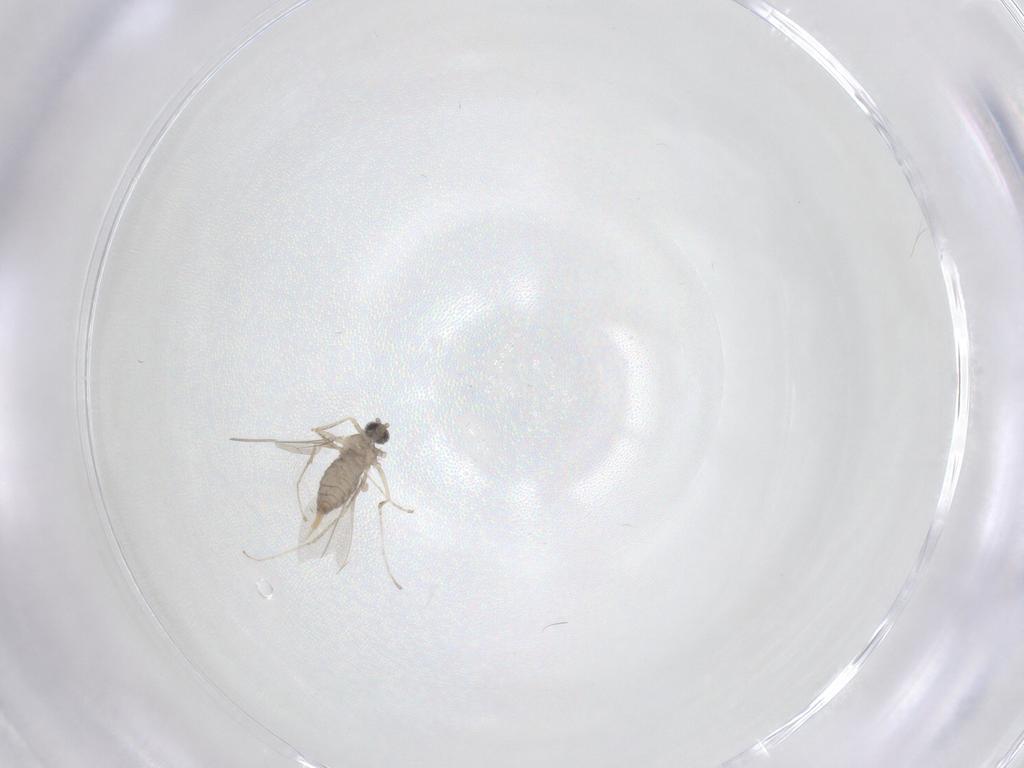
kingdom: Animalia
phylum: Arthropoda
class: Insecta
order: Diptera
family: Cecidomyiidae
